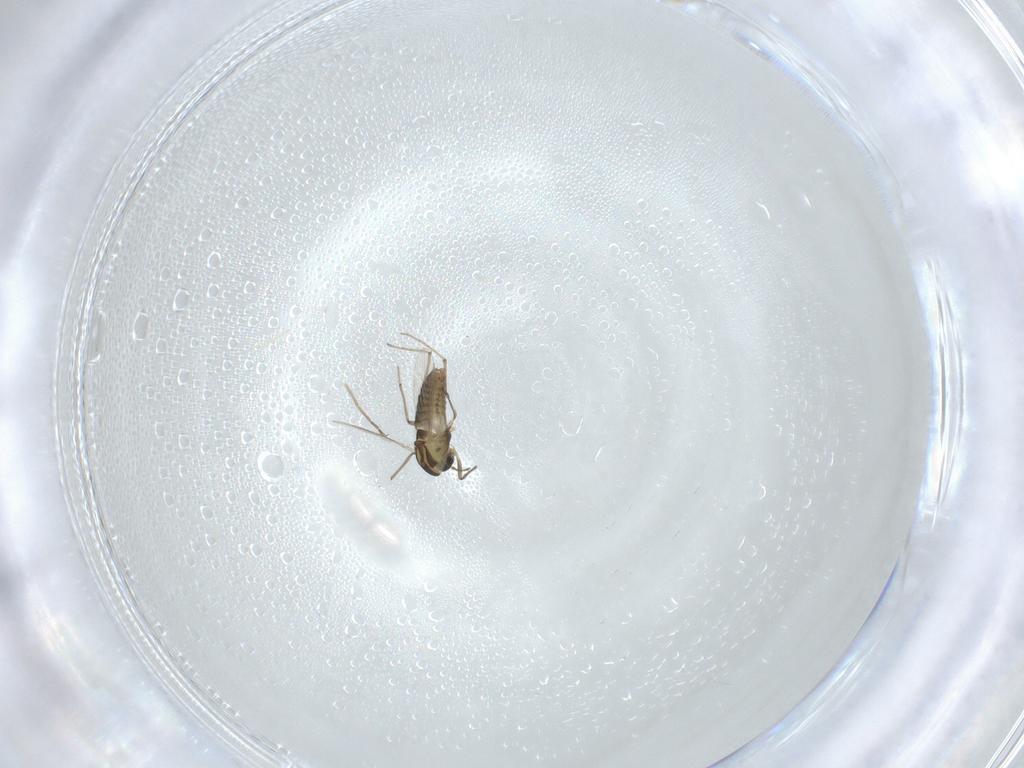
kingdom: Animalia
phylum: Arthropoda
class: Insecta
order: Diptera
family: Chironomidae
